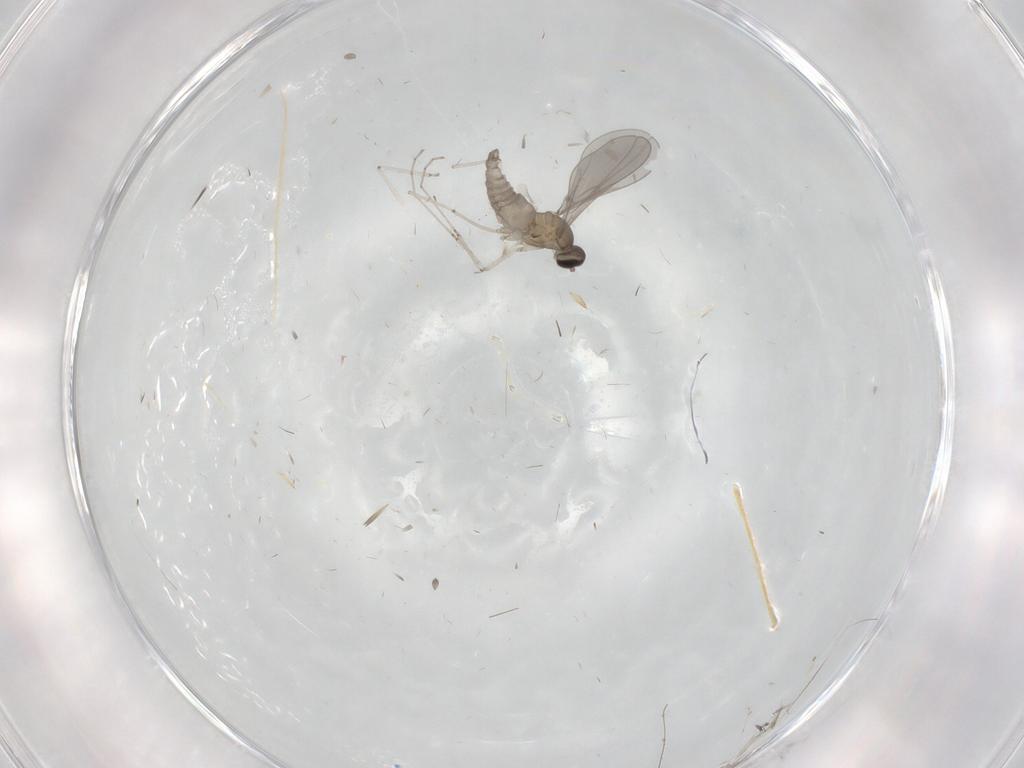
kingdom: Animalia
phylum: Arthropoda
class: Insecta
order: Diptera
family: Cecidomyiidae
